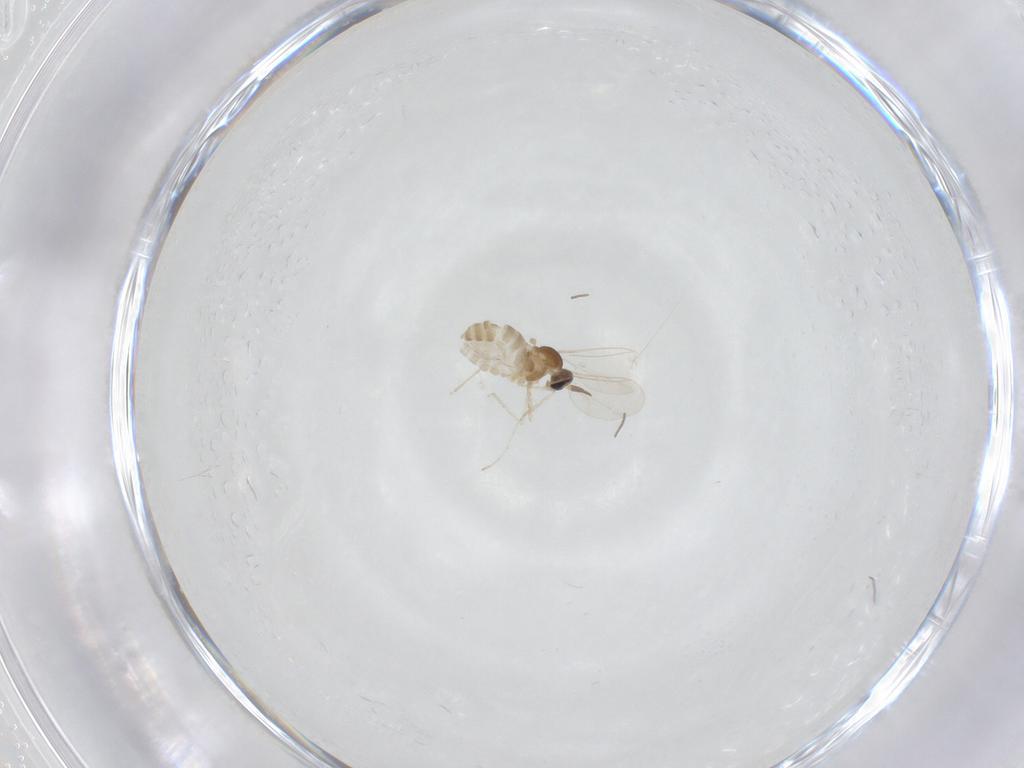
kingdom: Animalia
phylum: Arthropoda
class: Insecta
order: Diptera
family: Cecidomyiidae
